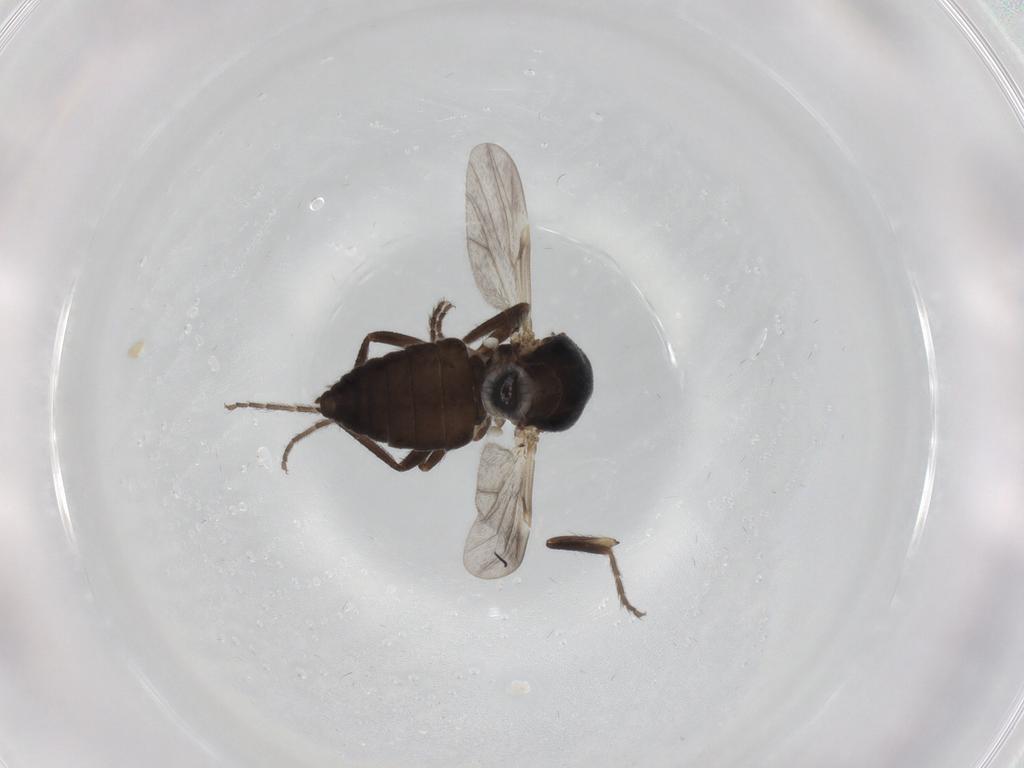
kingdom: Animalia
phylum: Arthropoda
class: Insecta
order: Diptera
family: Ceratopogonidae
